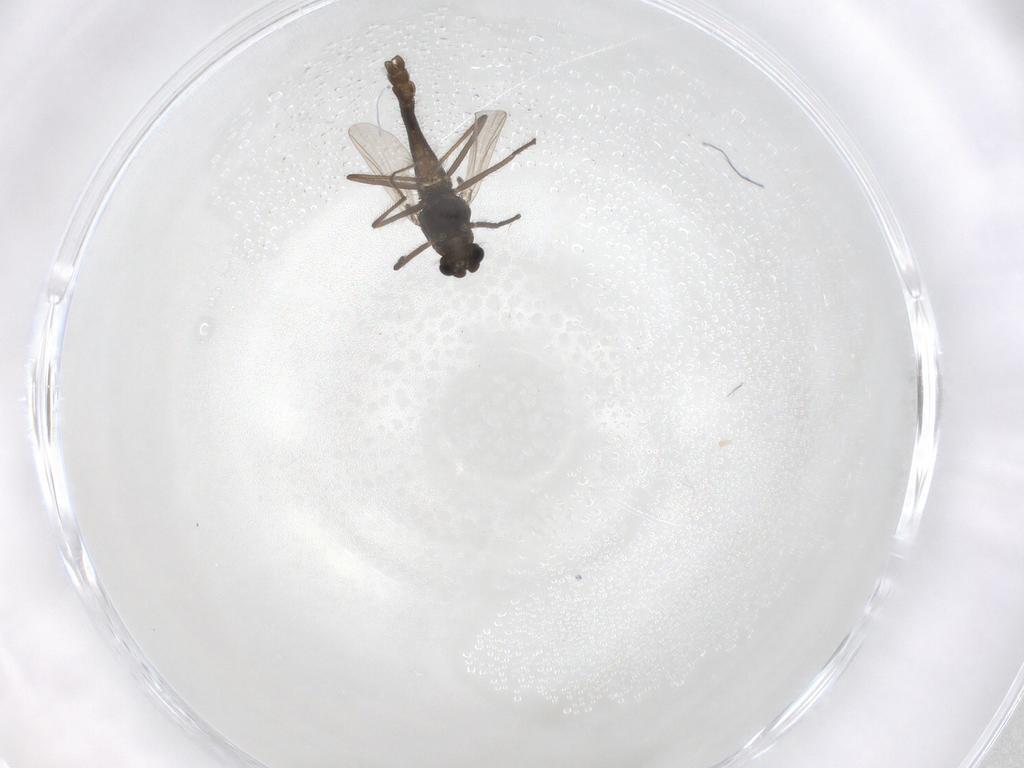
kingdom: Animalia
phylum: Arthropoda
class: Insecta
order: Diptera
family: Chironomidae
